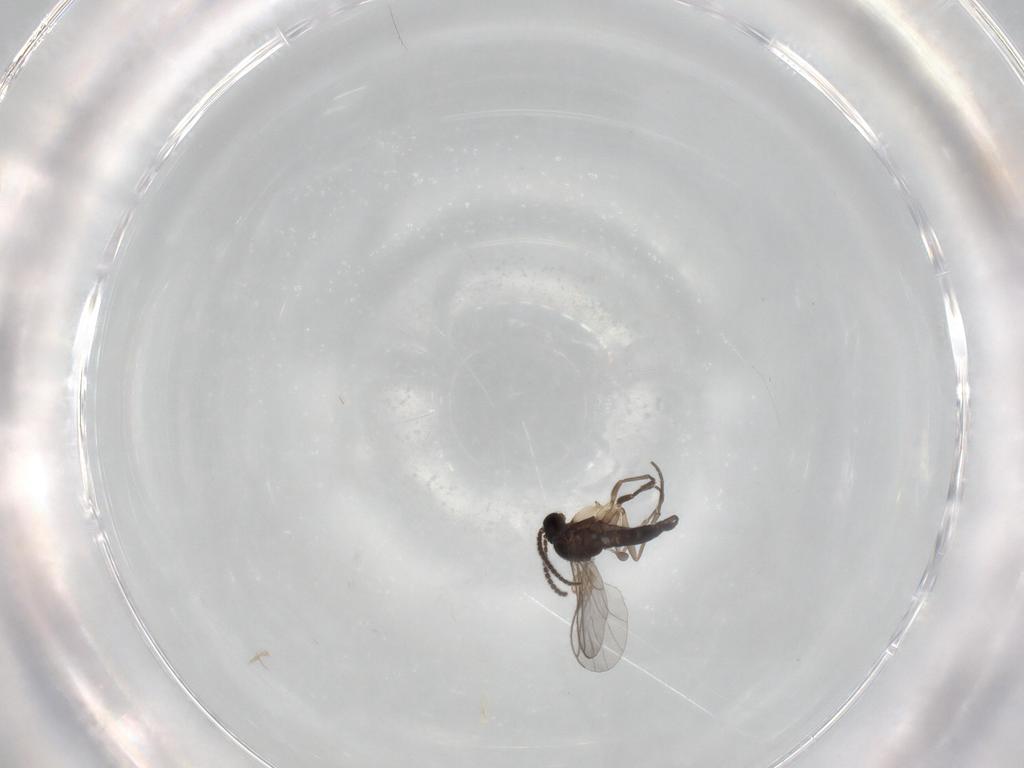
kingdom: Animalia
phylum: Arthropoda
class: Insecta
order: Diptera
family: Sciaridae
